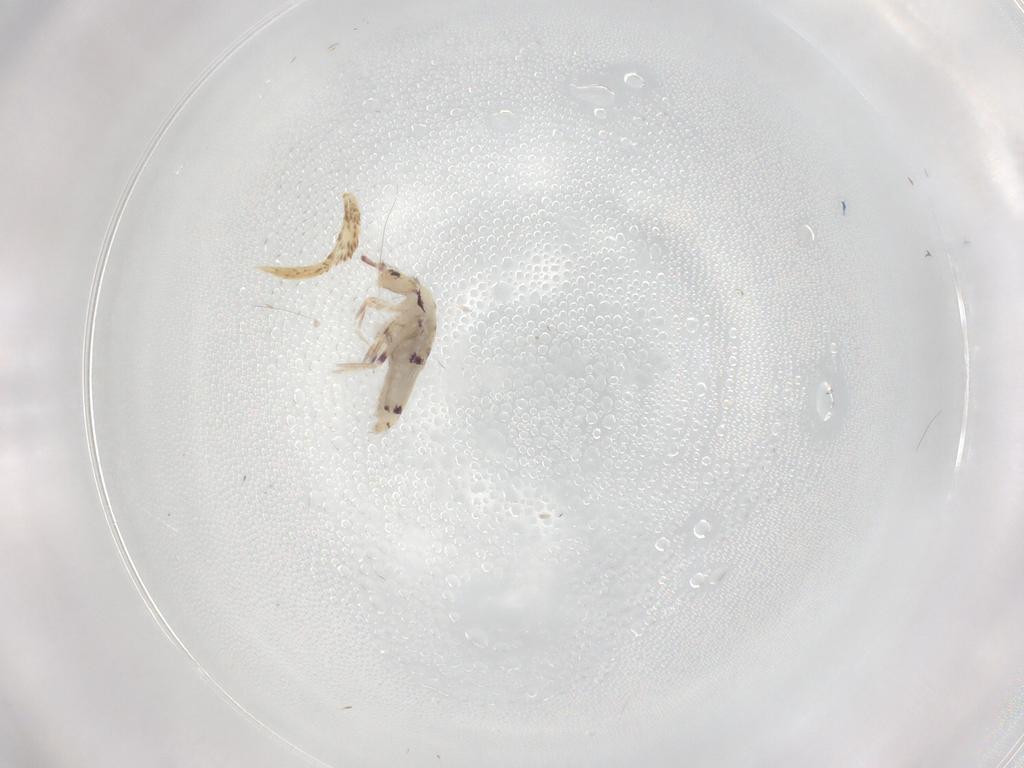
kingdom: Animalia
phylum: Arthropoda
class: Collembola
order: Entomobryomorpha
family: Entomobryidae
